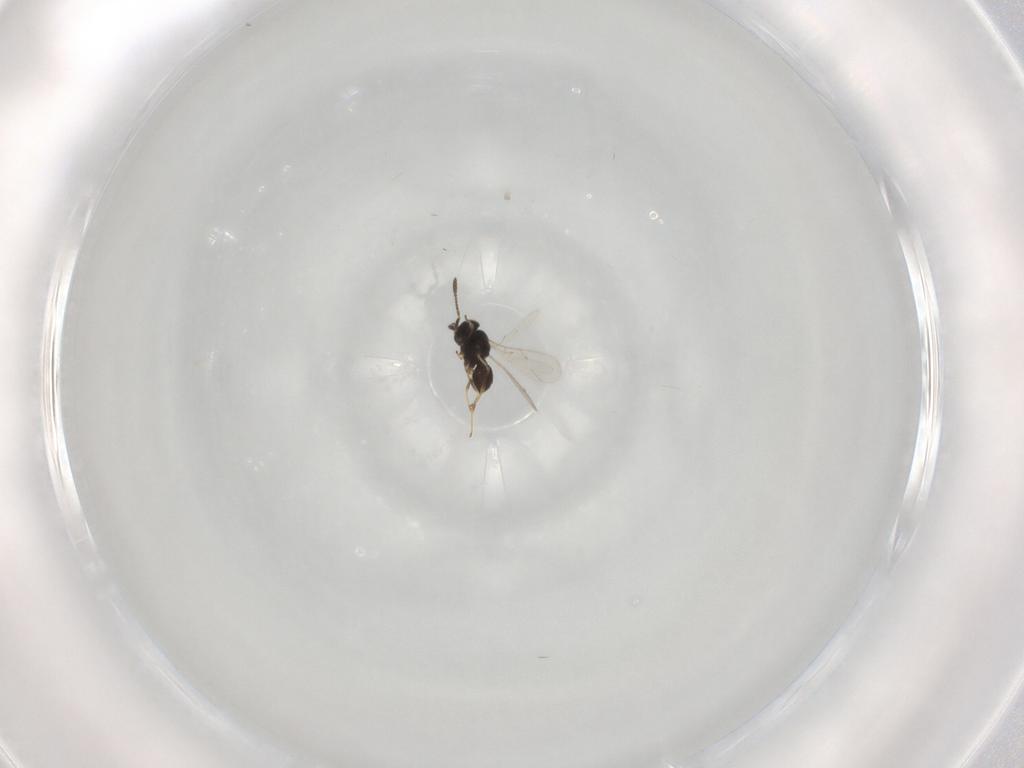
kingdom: Animalia
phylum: Arthropoda
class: Insecta
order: Hymenoptera
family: Scelionidae
